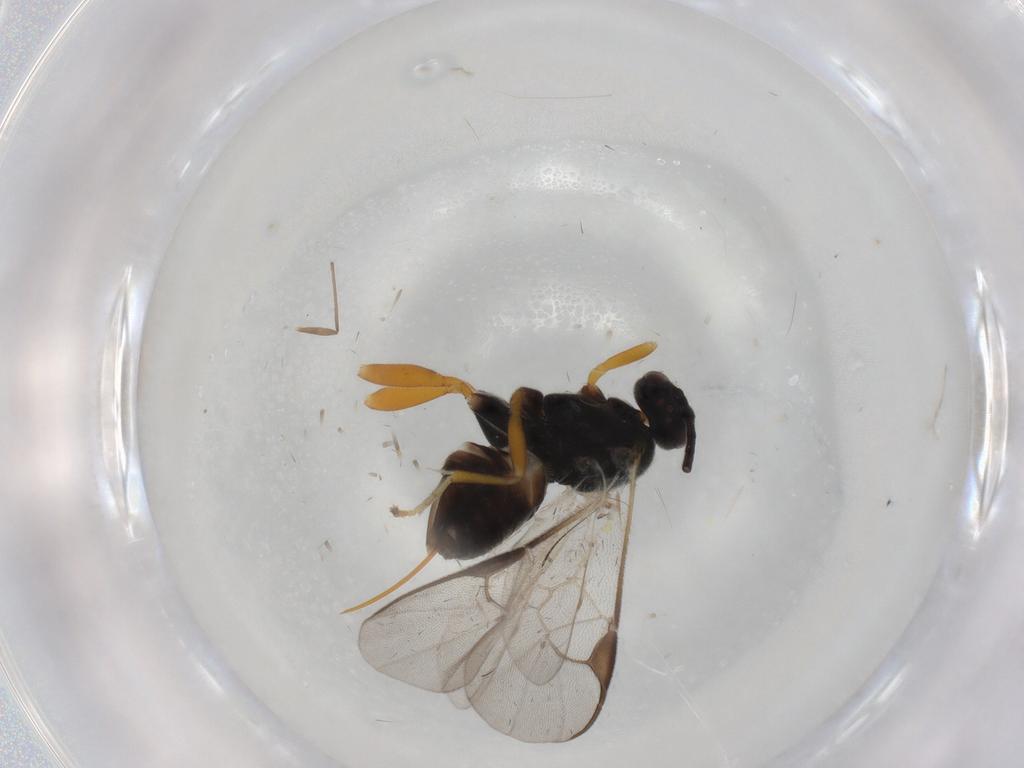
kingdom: Animalia
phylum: Arthropoda
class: Insecta
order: Hymenoptera
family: Braconidae
